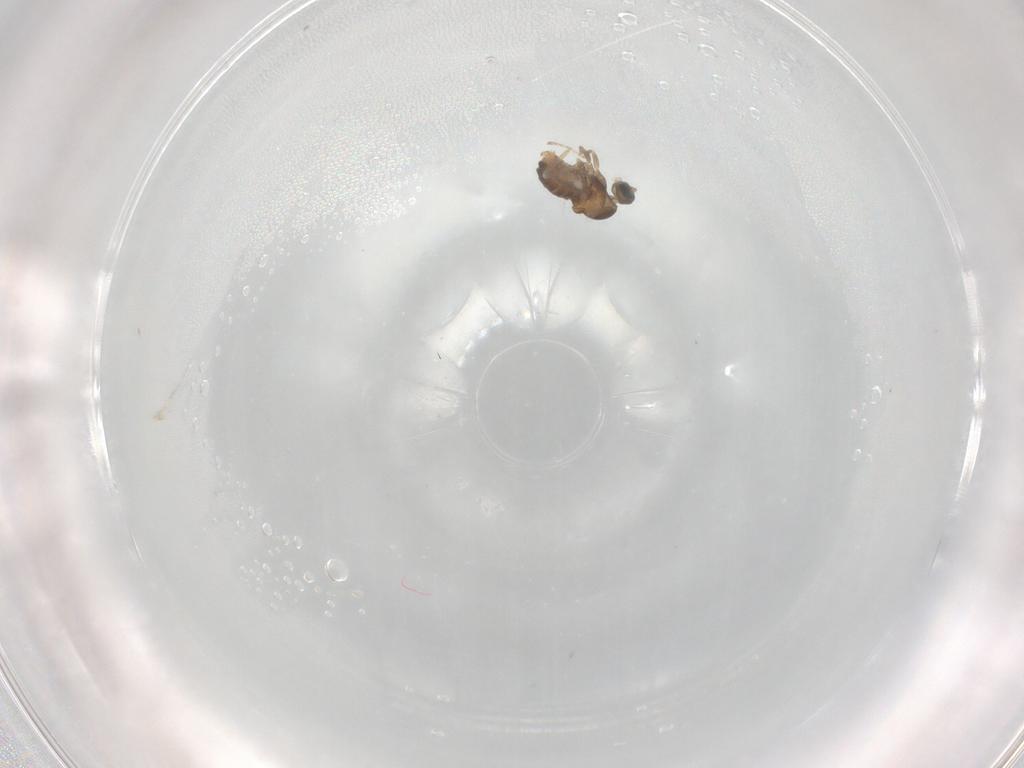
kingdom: Animalia
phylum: Arthropoda
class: Insecta
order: Diptera
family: Cecidomyiidae
